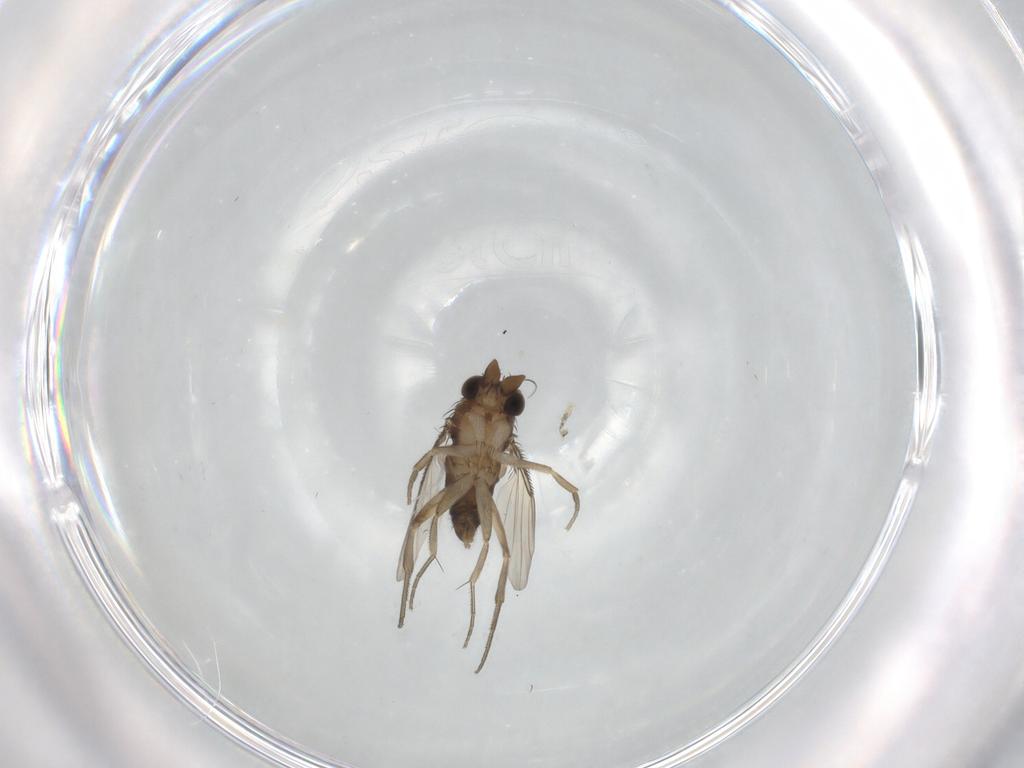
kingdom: Animalia
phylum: Arthropoda
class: Insecta
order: Diptera
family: Phoridae
